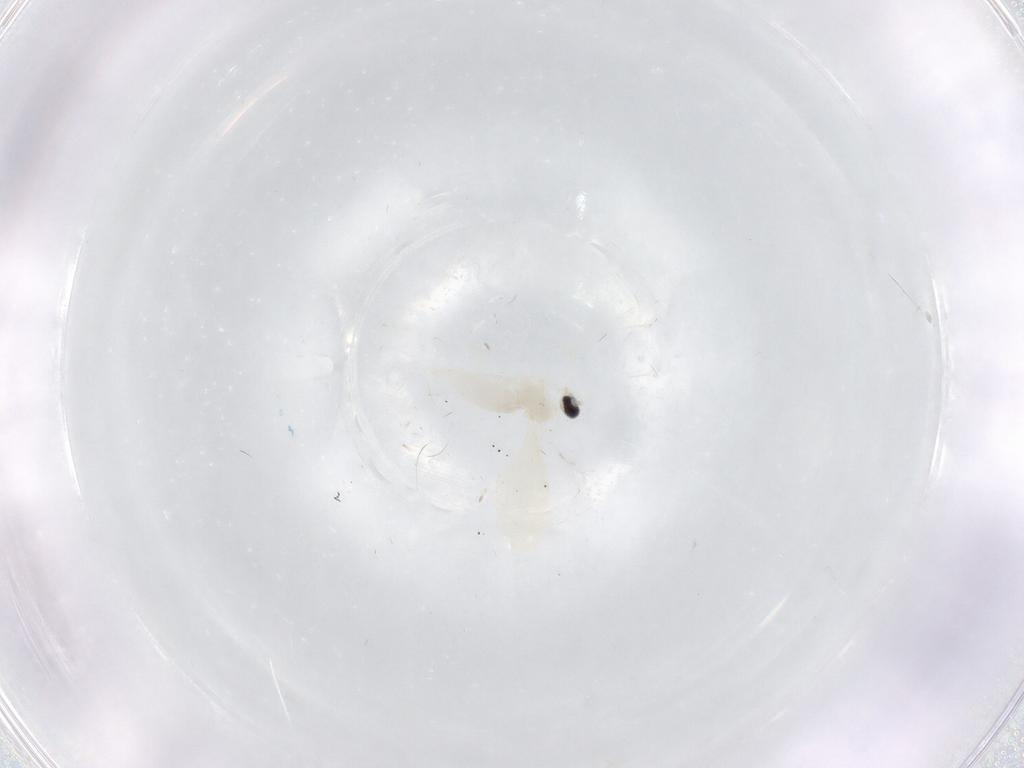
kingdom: Animalia
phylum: Arthropoda
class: Insecta
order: Diptera
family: Cecidomyiidae
